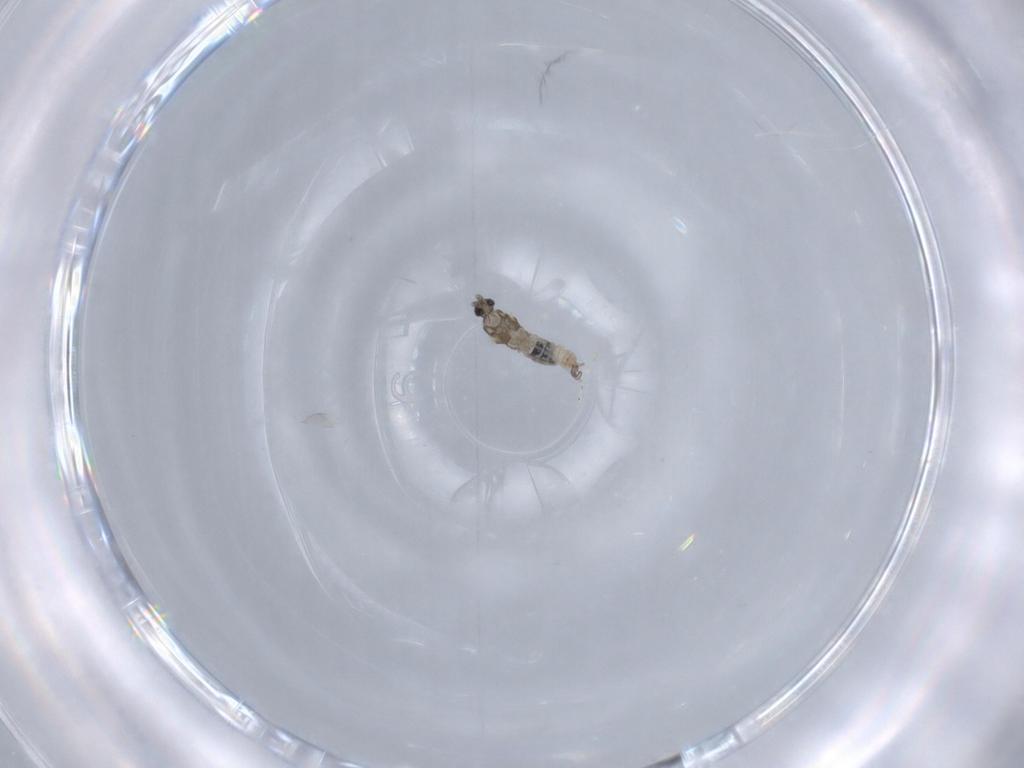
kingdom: Animalia
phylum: Arthropoda
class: Insecta
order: Diptera
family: Cecidomyiidae
